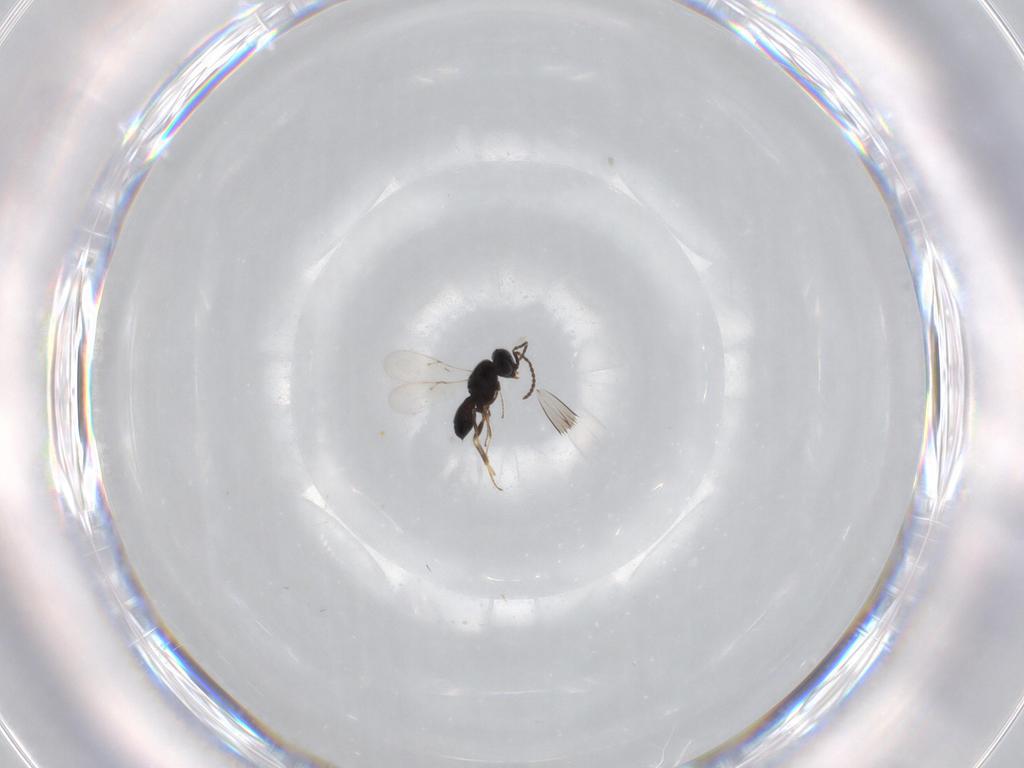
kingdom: Animalia
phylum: Arthropoda
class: Insecta
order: Hymenoptera
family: Scelionidae
